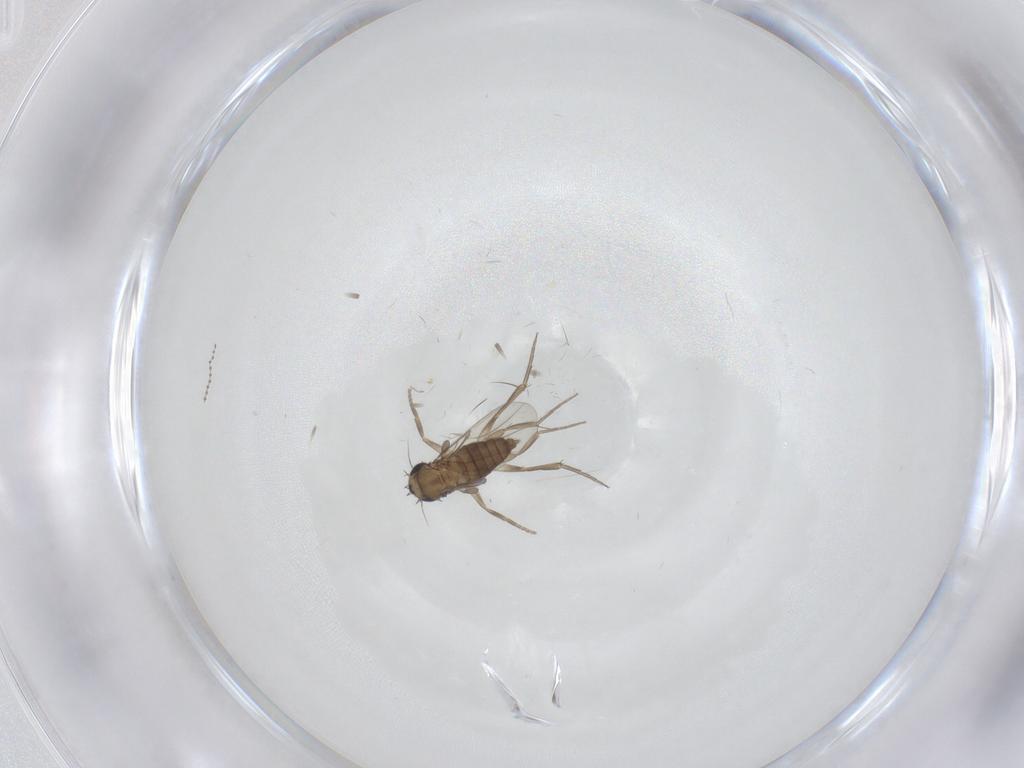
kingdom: Animalia
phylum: Arthropoda
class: Insecta
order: Diptera
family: Phoridae
